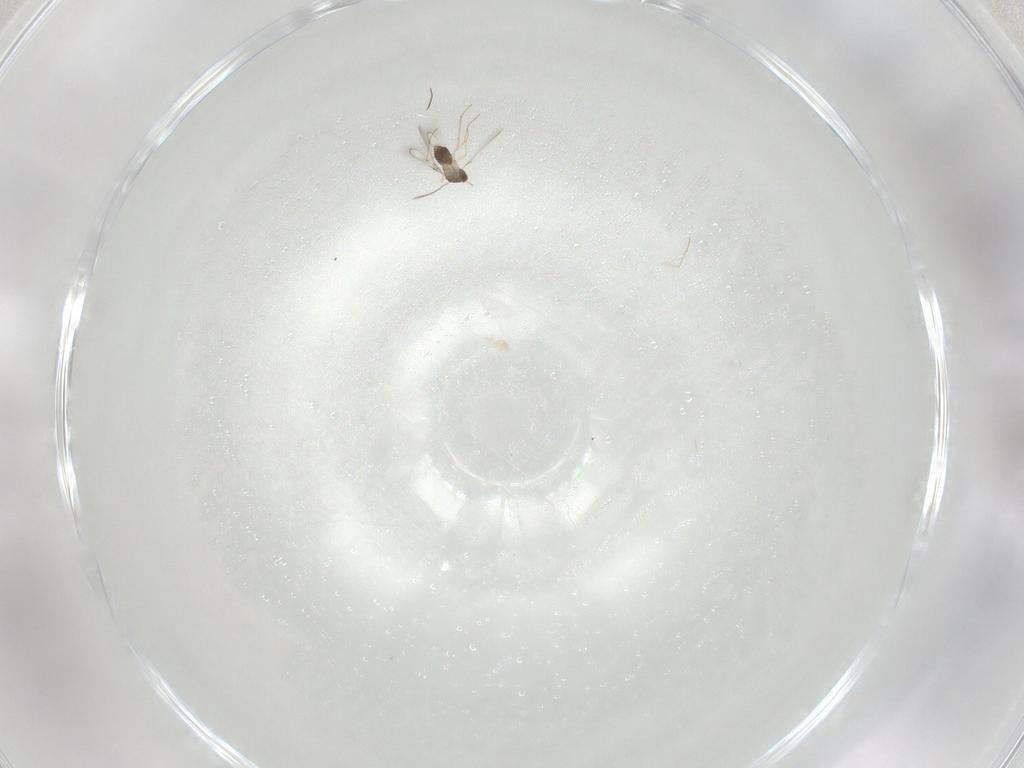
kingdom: Animalia
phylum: Arthropoda
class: Insecta
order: Hymenoptera
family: Mymaridae
